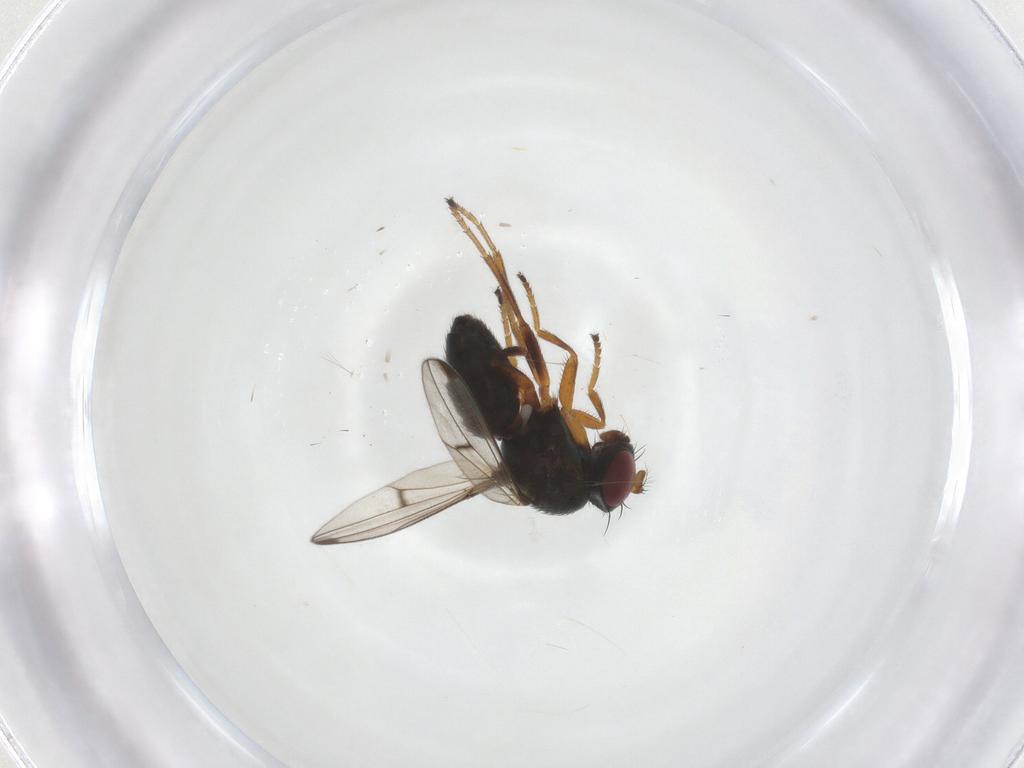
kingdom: Animalia
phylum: Arthropoda
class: Insecta
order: Diptera
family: Ephydridae
